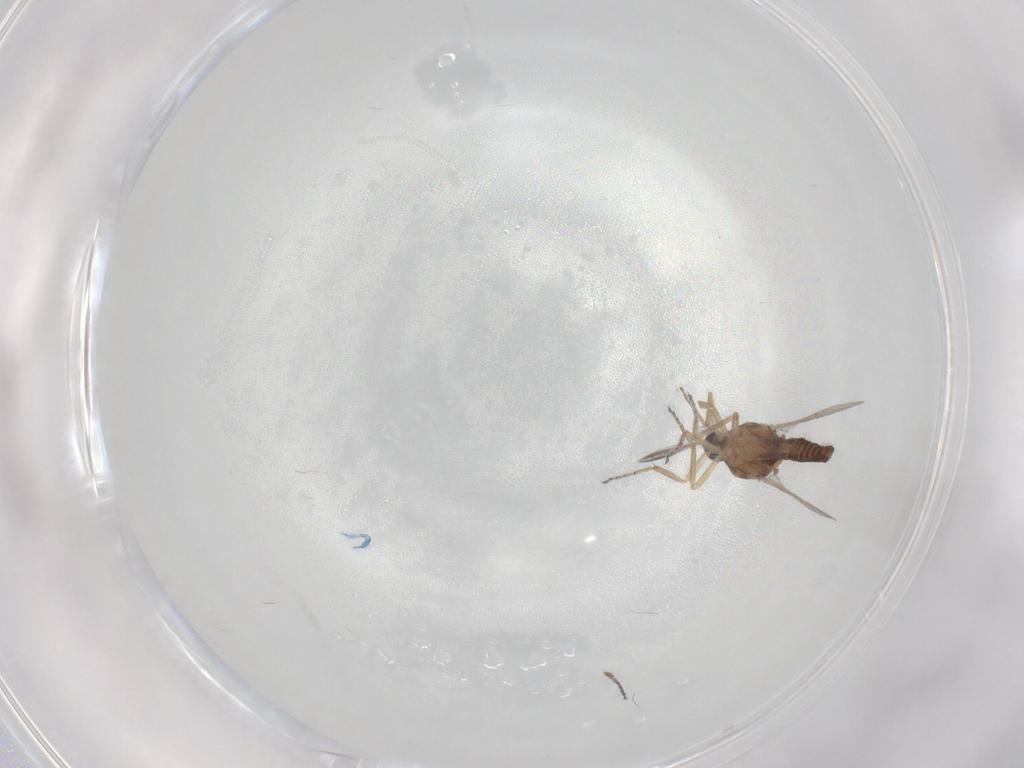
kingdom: Animalia
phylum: Arthropoda
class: Insecta
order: Diptera
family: Ceratopogonidae
